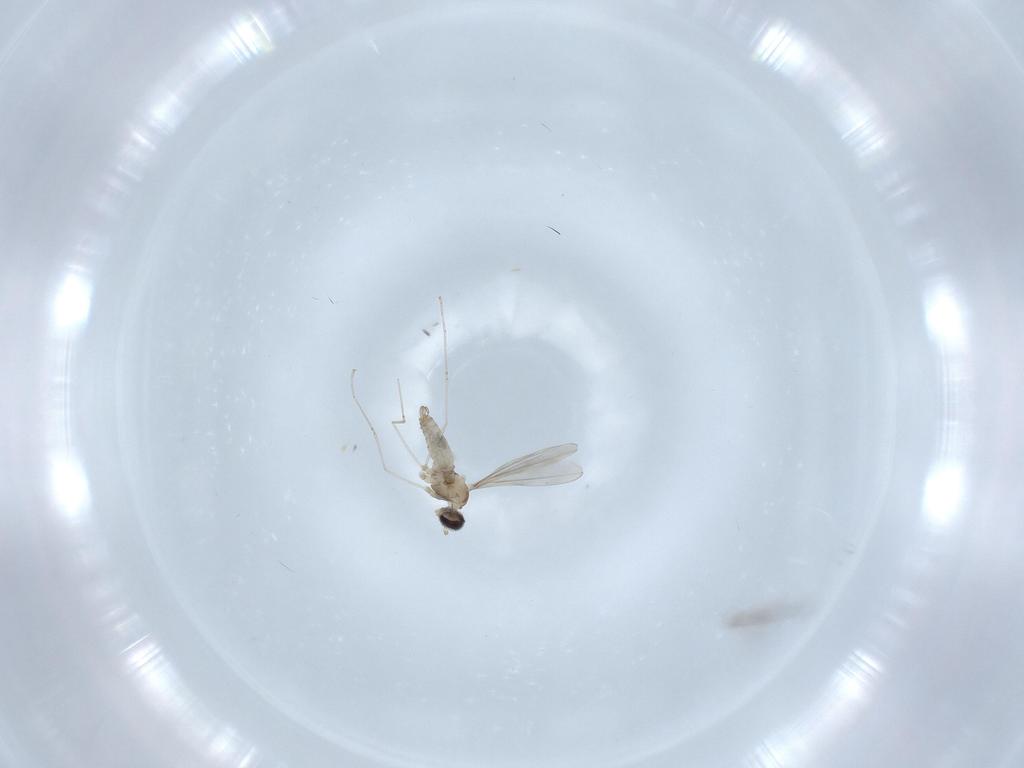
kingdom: Animalia
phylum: Arthropoda
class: Insecta
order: Diptera
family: Cecidomyiidae
